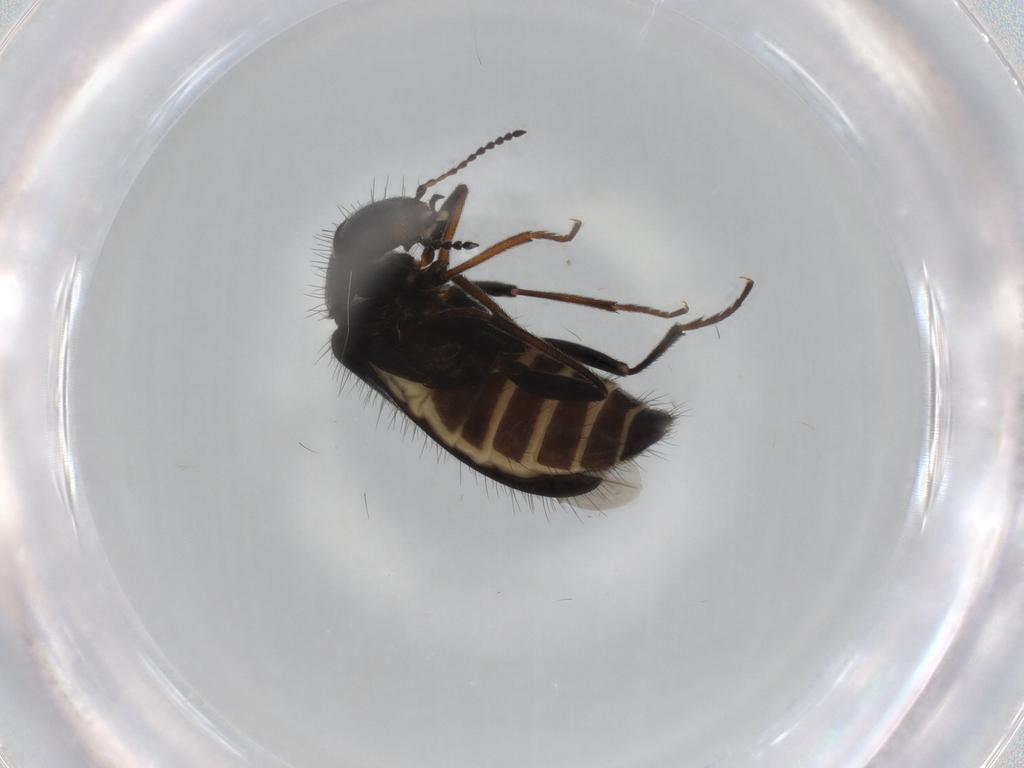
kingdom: Animalia
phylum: Arthropoda
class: Insecta
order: Coleoptera
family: Melyridae
